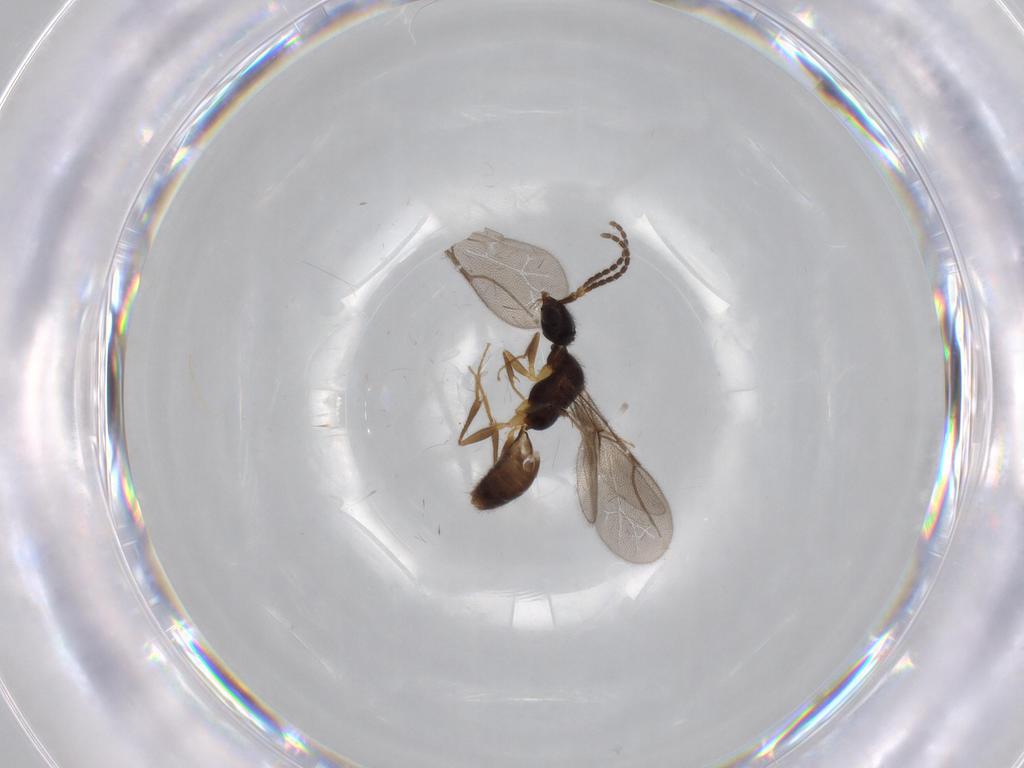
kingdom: Animalia
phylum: Arthropoda
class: Insecta
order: Hymenoptera
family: Bethylidae
